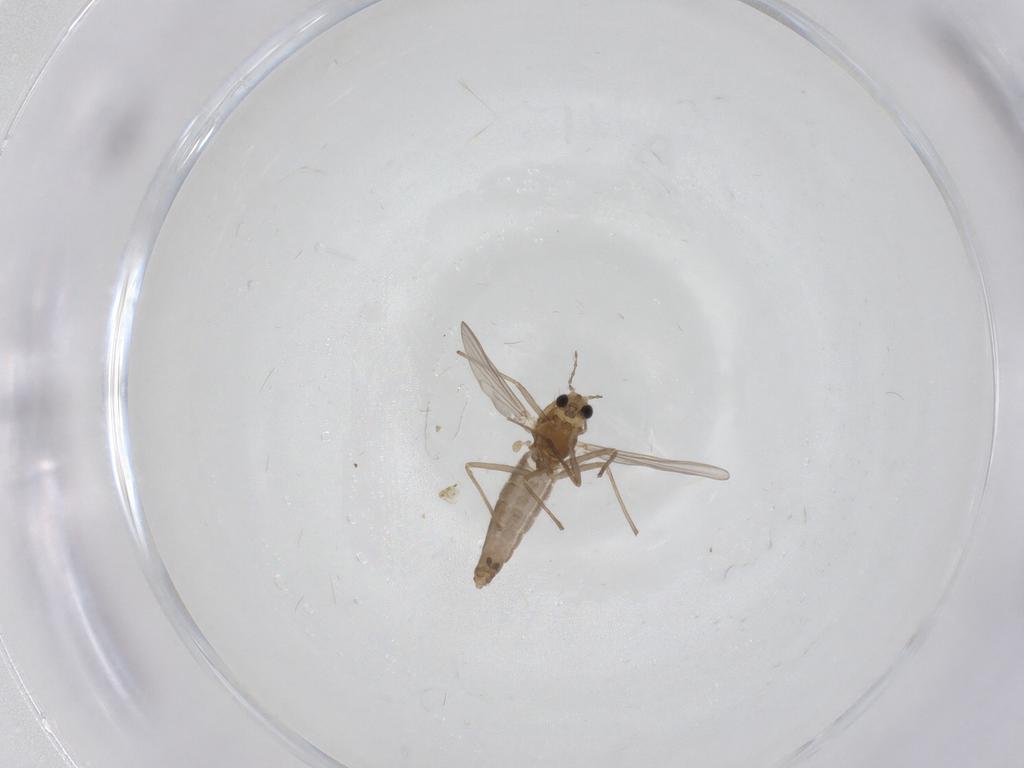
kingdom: Animalia
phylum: Arthropoda
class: Insecta
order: Diptera
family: Chironomidae
